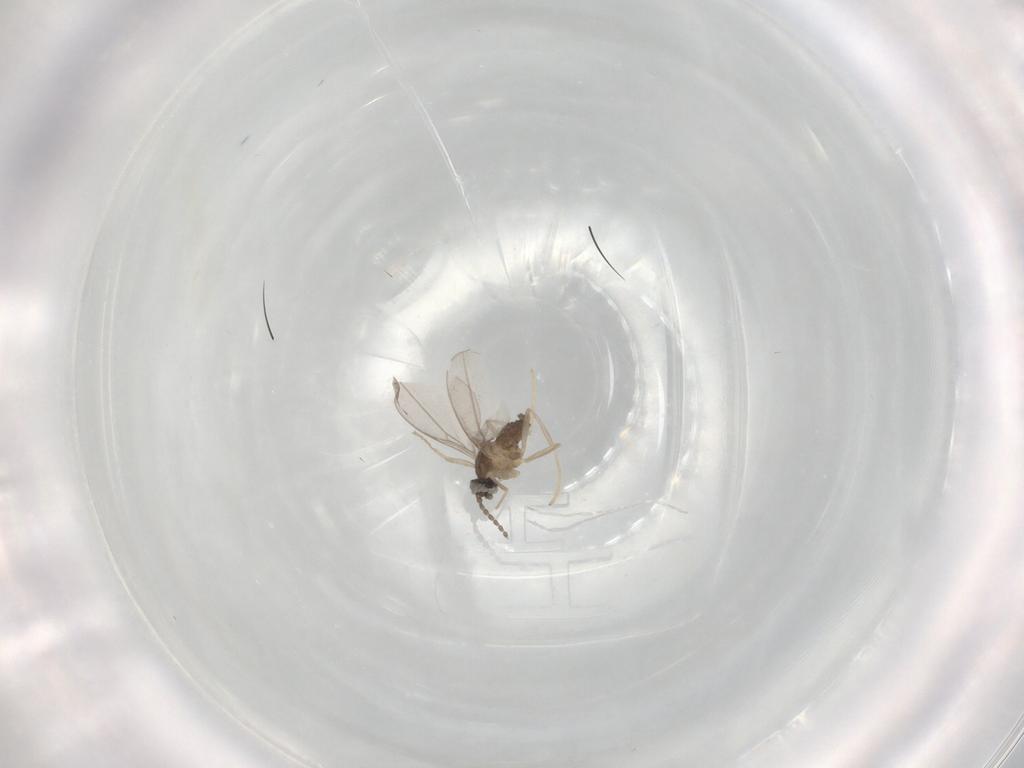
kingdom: Animalia
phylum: Arthropoda
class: Insecta
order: Diptera
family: Cecidomyiidae
